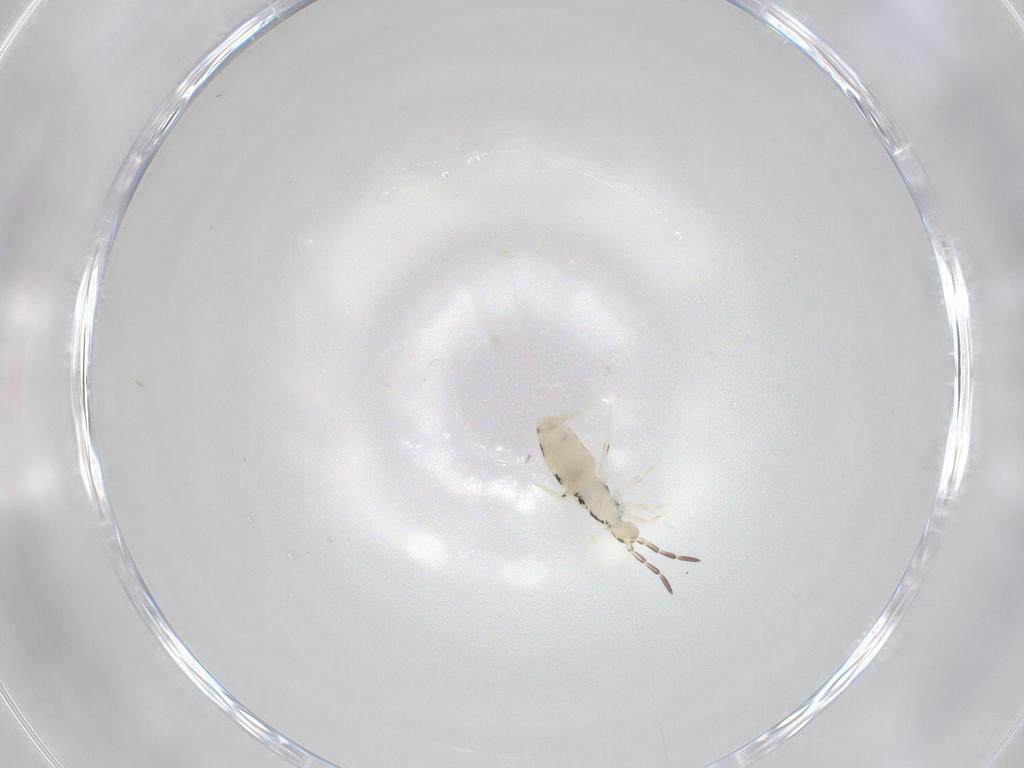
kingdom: Animalia
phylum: Arthropoda
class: Collembola
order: Entomobryomorpha
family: Entomobryidae
